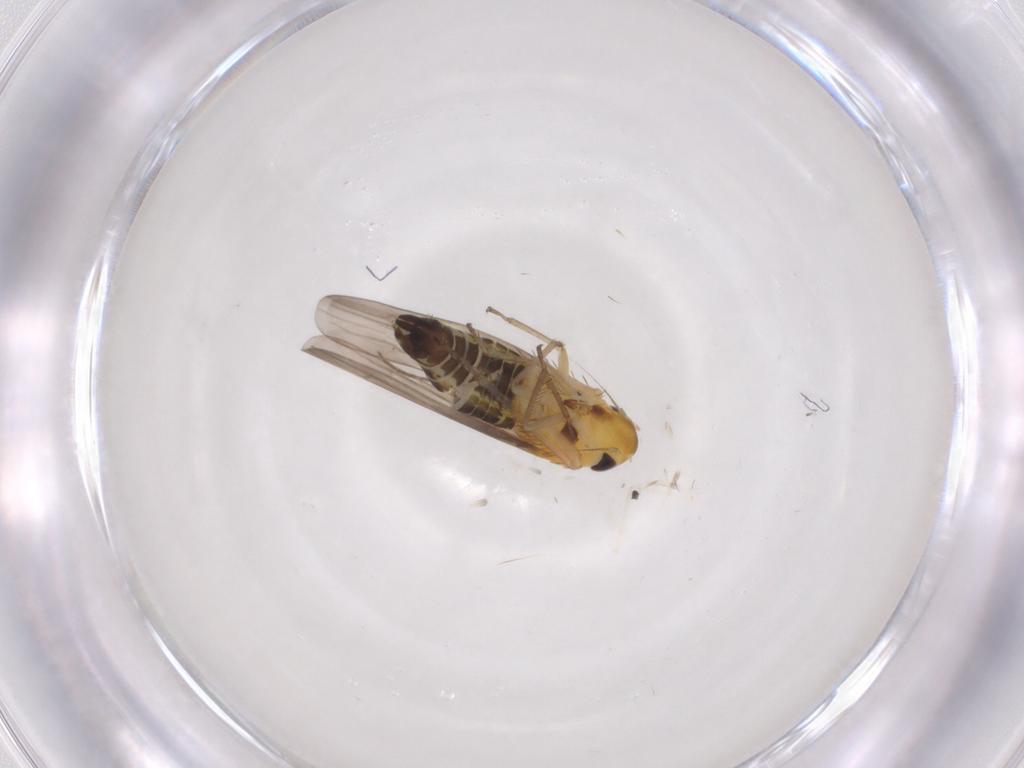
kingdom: Animalia
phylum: Arthropoda
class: Insecta
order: Hemiptera
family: Cicadellidae
